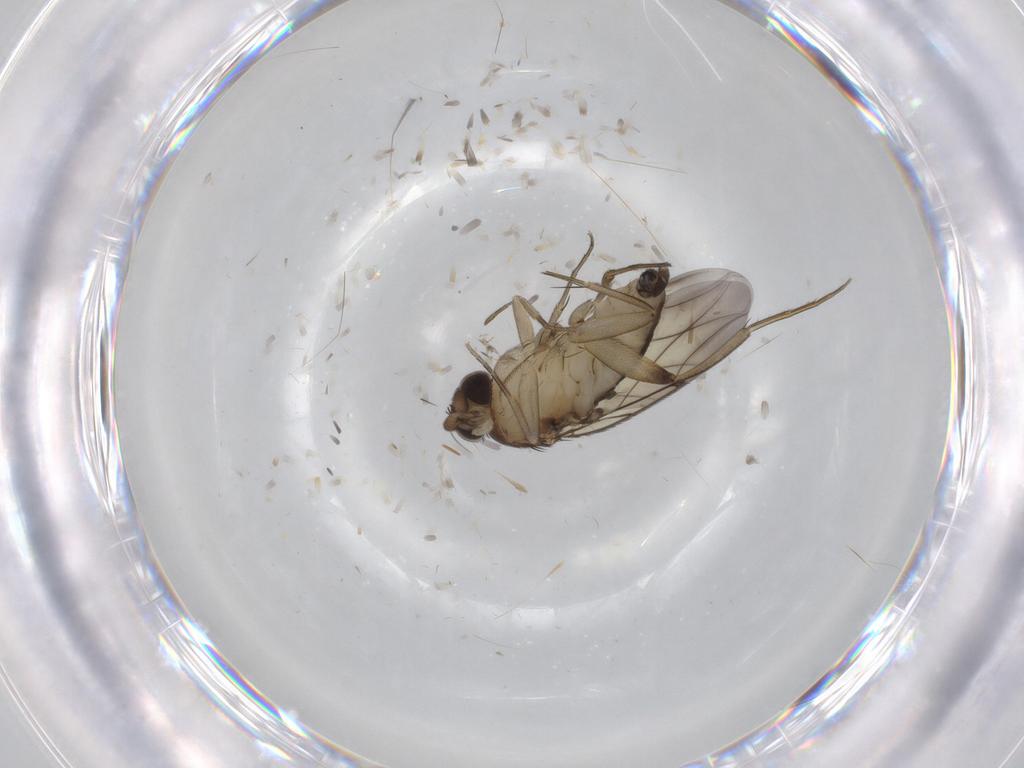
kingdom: Animalia
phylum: Arthropoda
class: Insecta
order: Diptera
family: Phoridae
